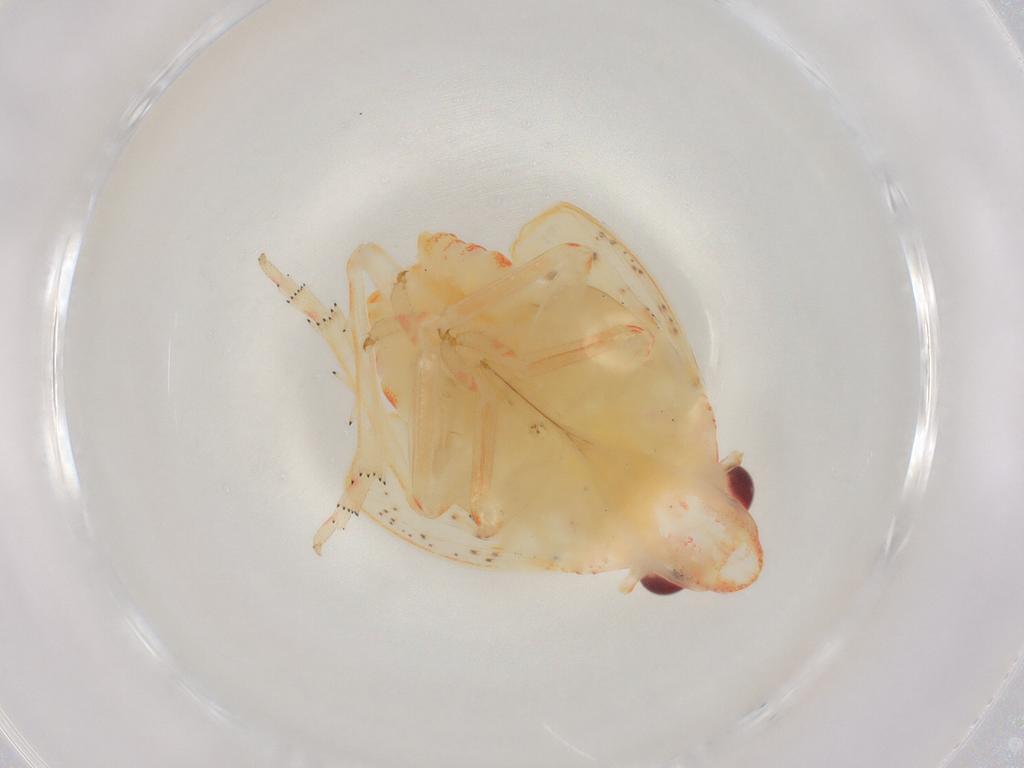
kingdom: Animalia
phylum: Arthropoda
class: Insecta
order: Hemiptera
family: Flatidae
